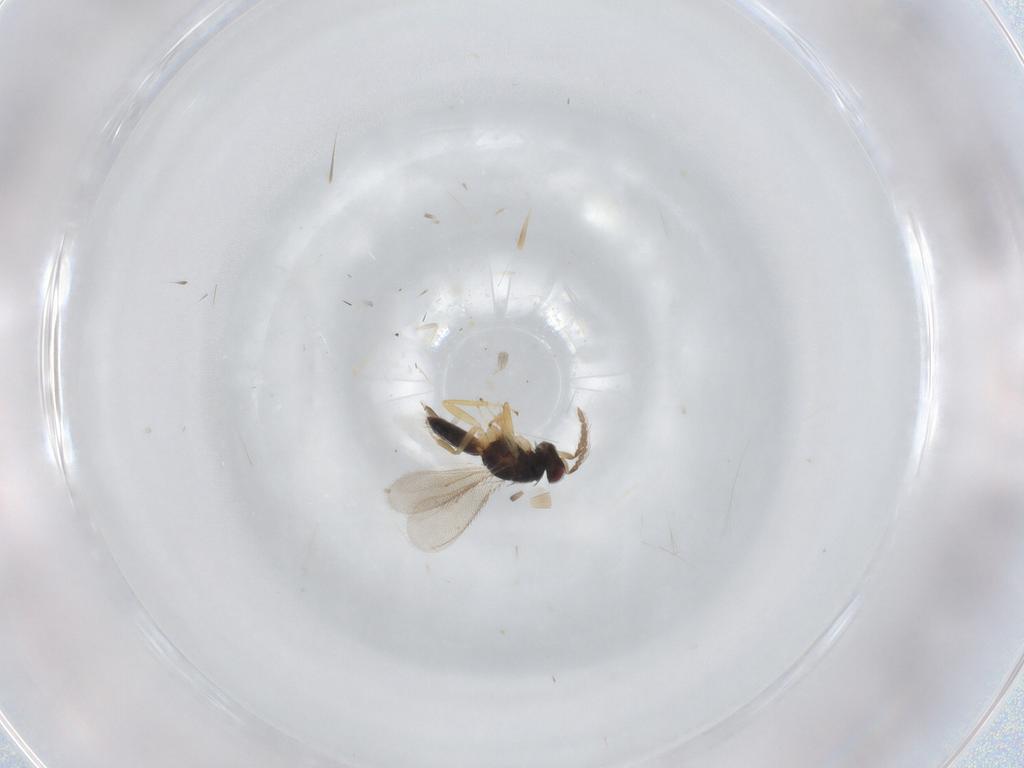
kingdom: Animalia
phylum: Arthropoda
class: Insecta
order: Hymenoptera
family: Eulophidae
